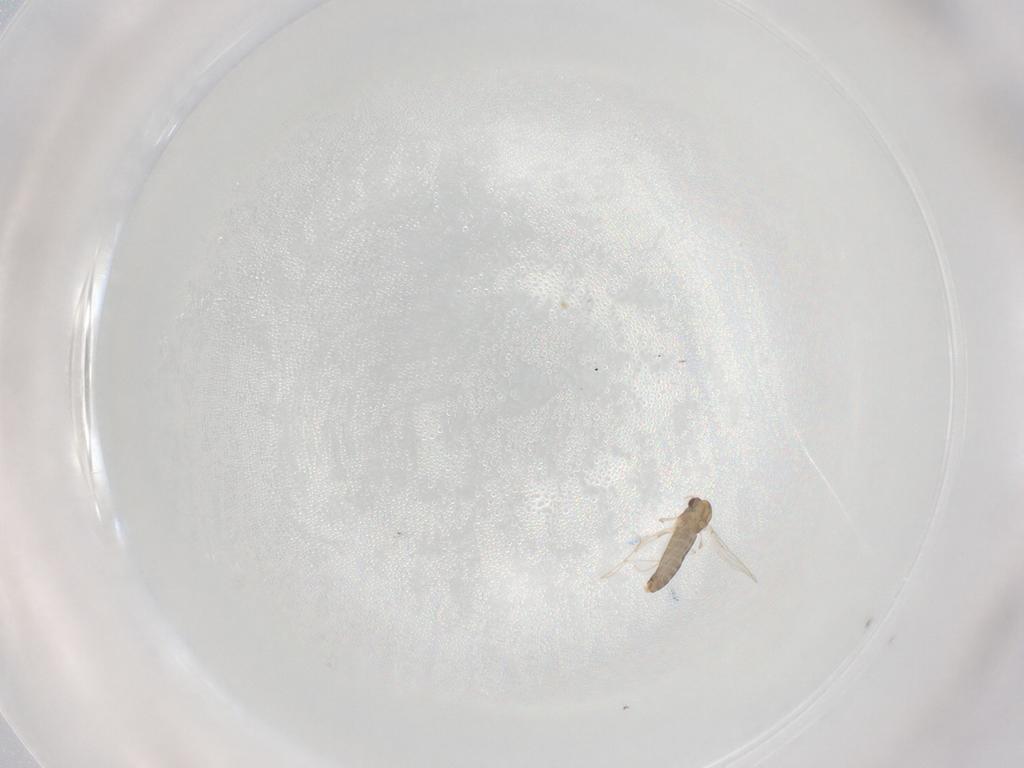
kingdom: Animalia
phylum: Arthropoda
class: Insecta
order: Diptera
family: Chironomidae
